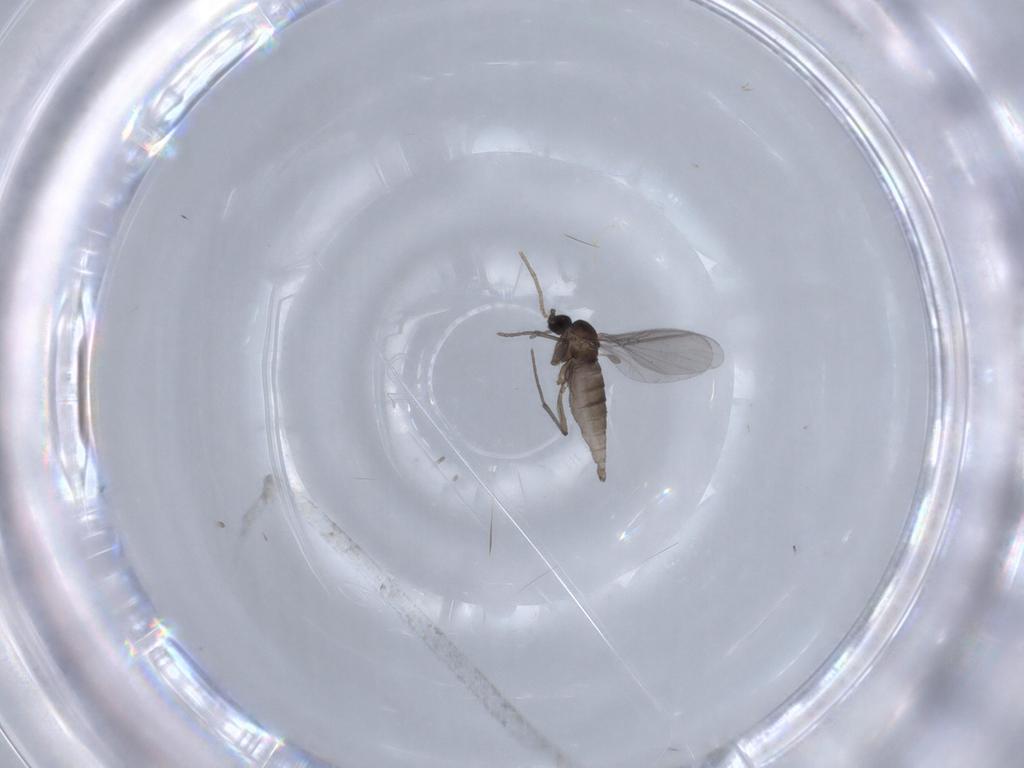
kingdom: Animalia
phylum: Arthropoda
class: Insecta
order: Diptera
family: Sciaridae
